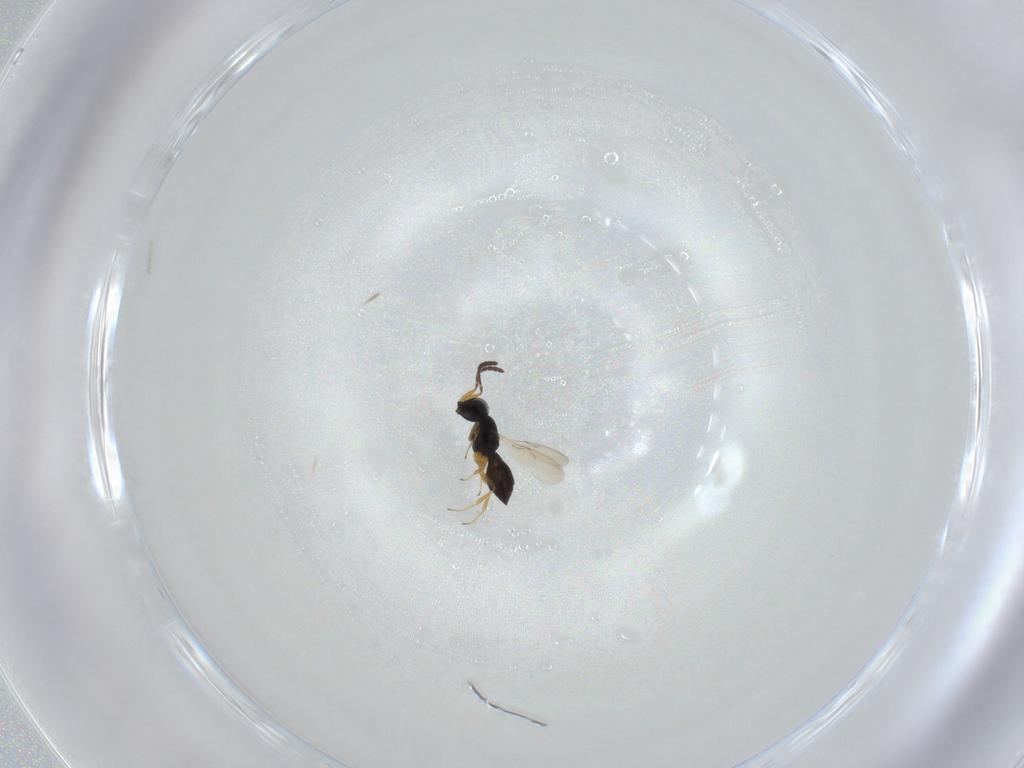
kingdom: Animalia
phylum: Arthropoda
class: Insecta
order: Hymenoptera
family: Scelionidae
